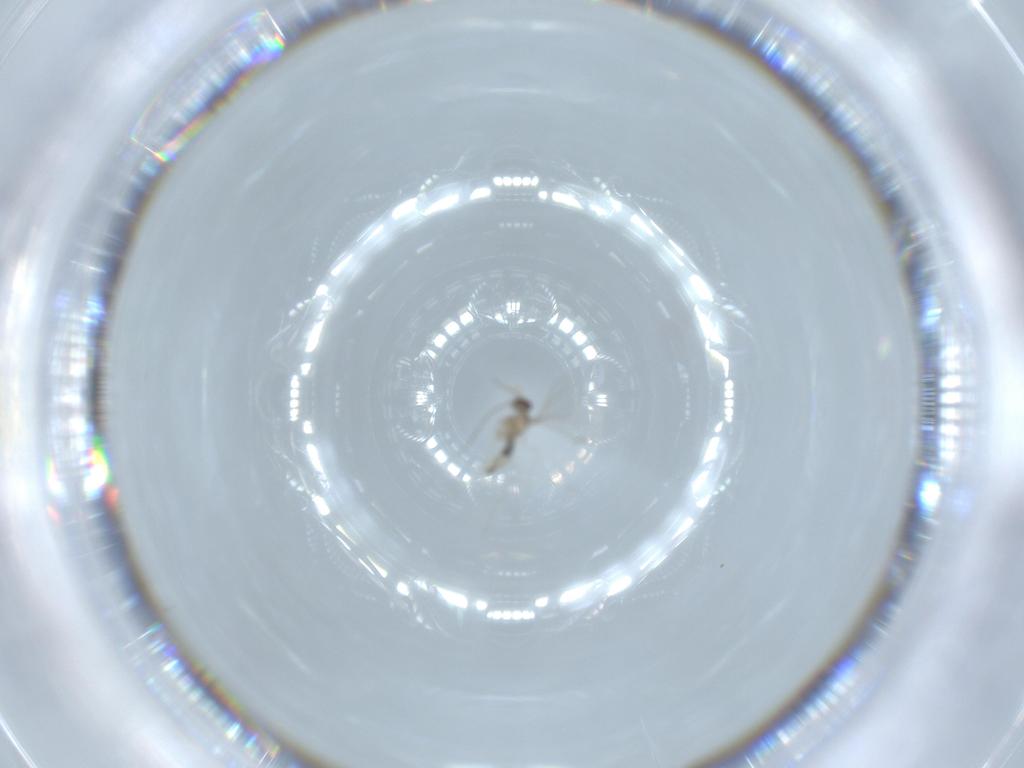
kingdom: Animalia
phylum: Arthropoda
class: Insecta
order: Diptera
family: Cecidomyiidae
